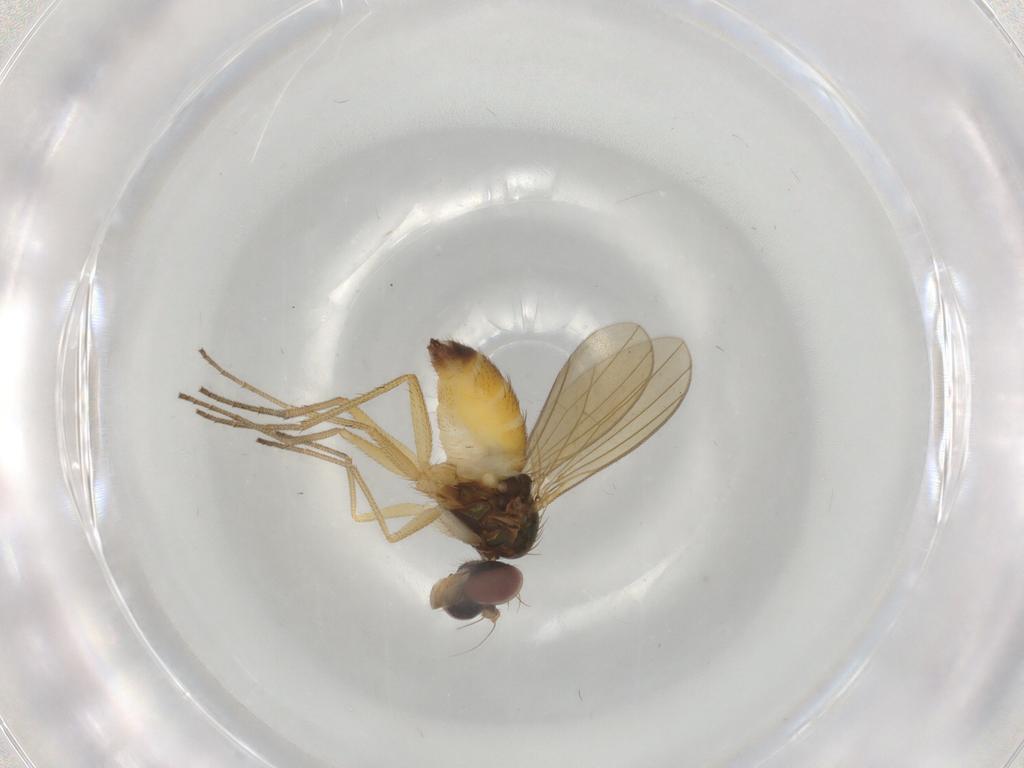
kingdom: Animalia
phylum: Arthropoda
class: Insecta
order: Diptera
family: Dolichopodidae
